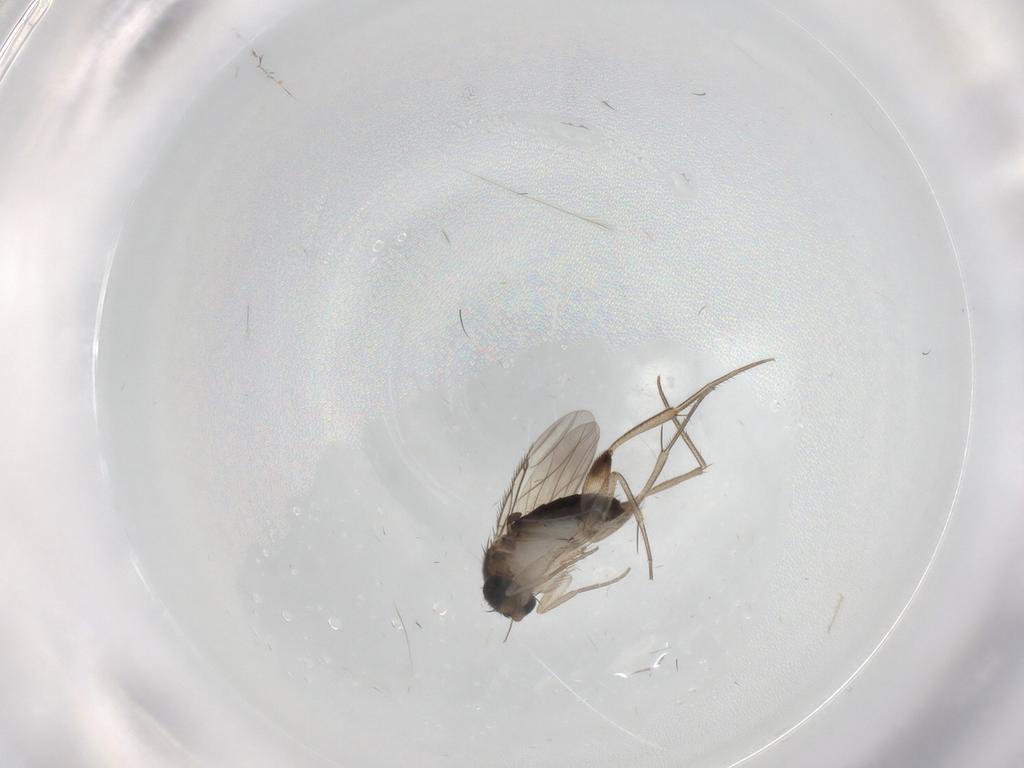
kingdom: Animalia
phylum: Arthropoda
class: Insecta
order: Diptera
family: Phoridae
